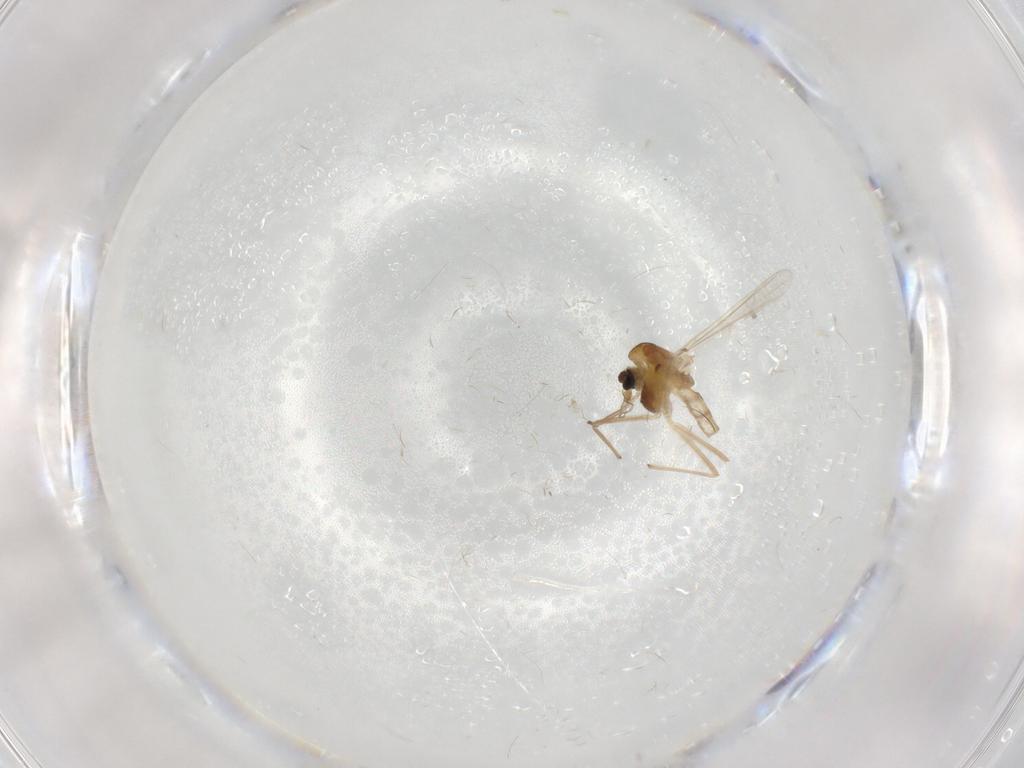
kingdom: Animalia
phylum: Arthropoda
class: Insecta
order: Diptera
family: Chironomidae
